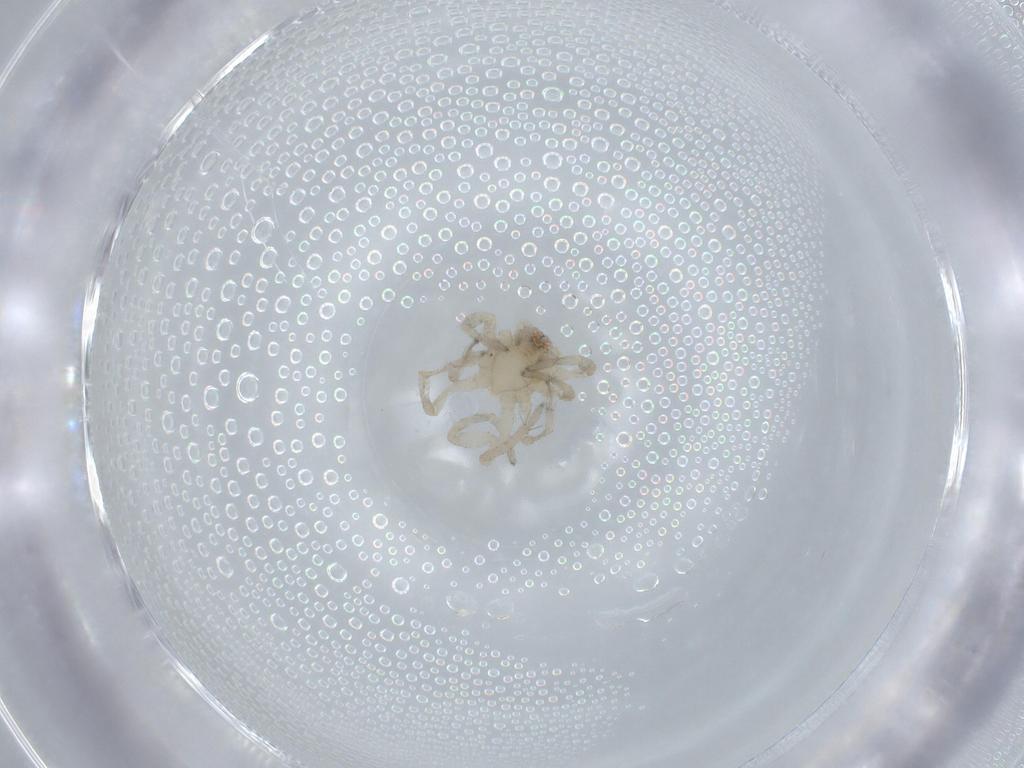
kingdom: Animalia
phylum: Arthropoda
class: Arachnida
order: Araneae
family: Amaurobiidae
